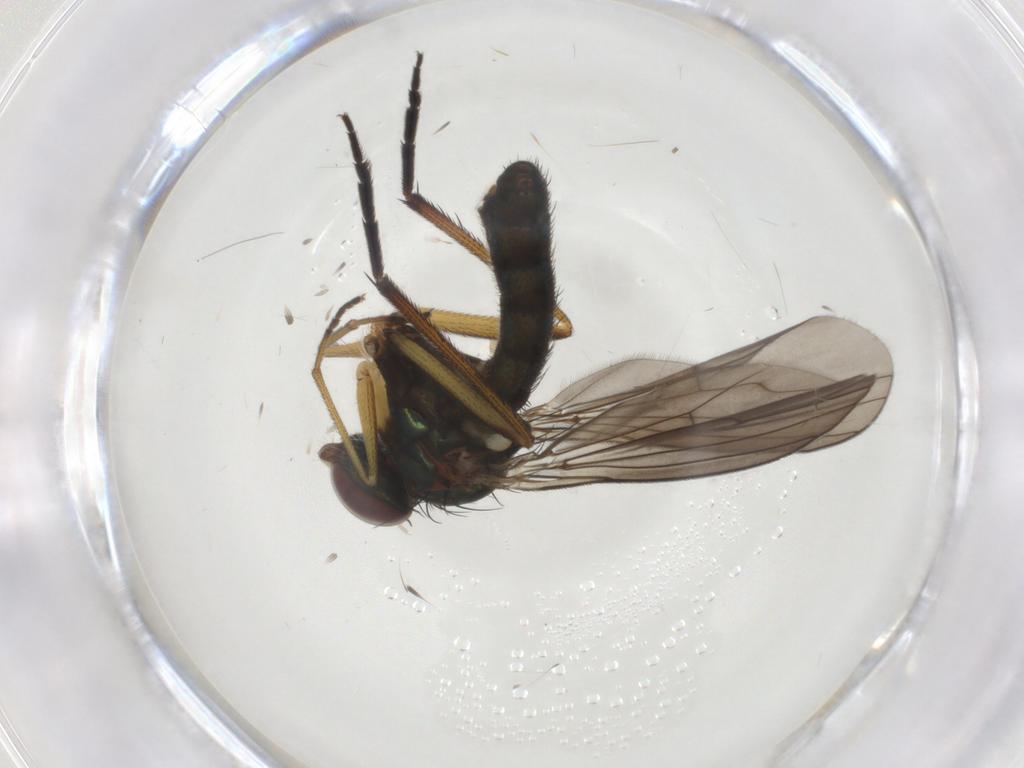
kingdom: Animalia
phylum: Arthropoda
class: Insecta
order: Diptera
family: Dolichopodidae
